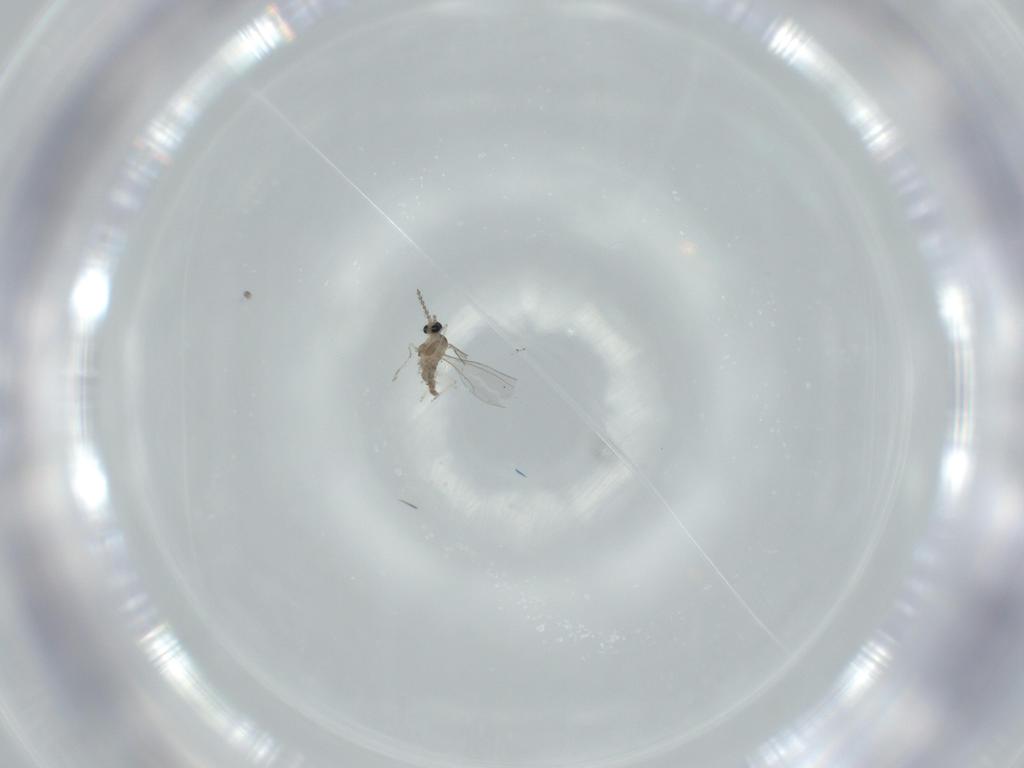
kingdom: Animalia
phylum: Arthropoda
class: Insecta
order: Diptera
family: Cecidomyiidae
